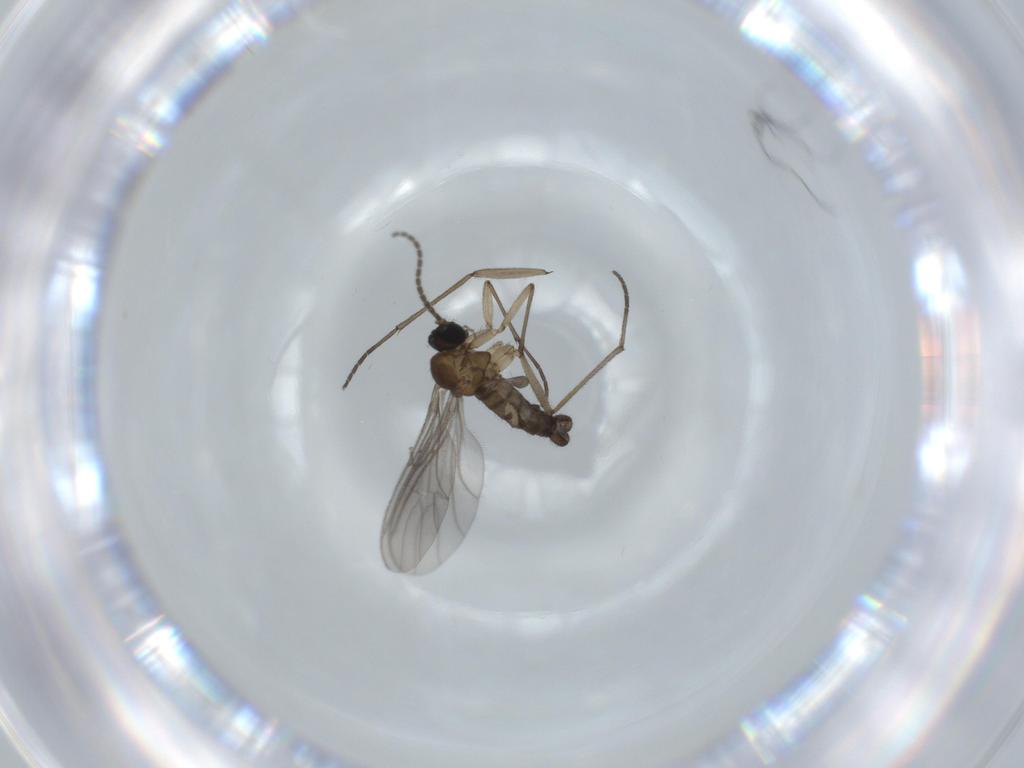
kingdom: Animalia
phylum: Arthropoda
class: Insecta
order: Diptera
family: Sciaridae
